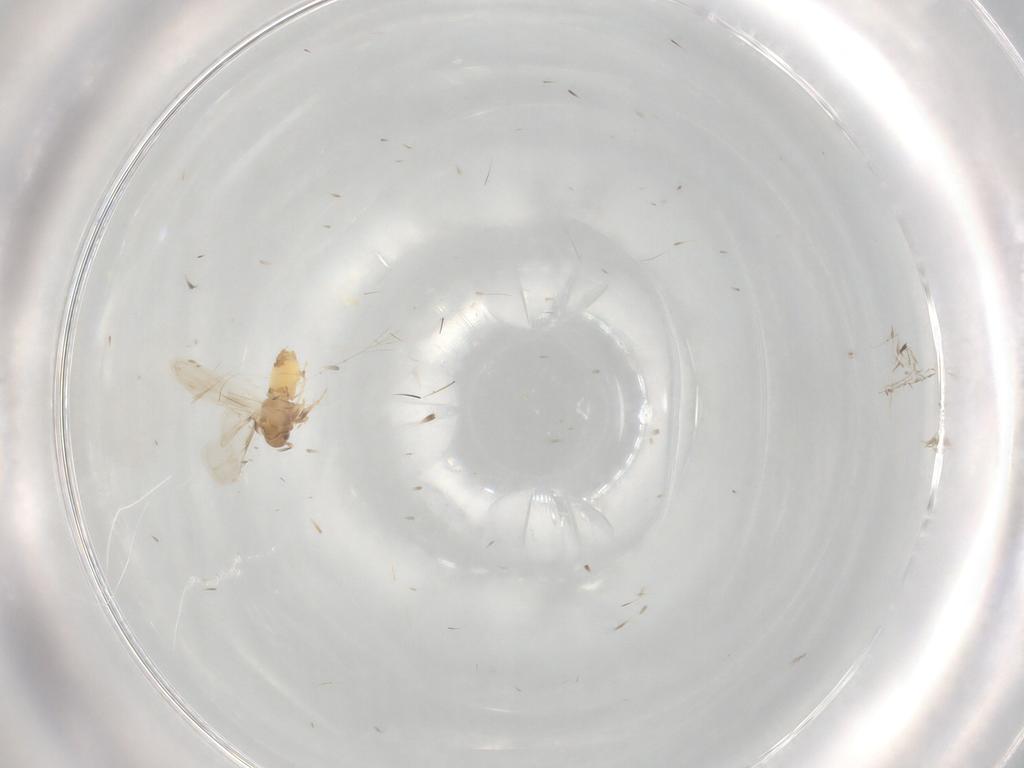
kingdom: Animalia
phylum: Arthropoda
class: Insecta
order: Hemiptera
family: Aleyrodidae
